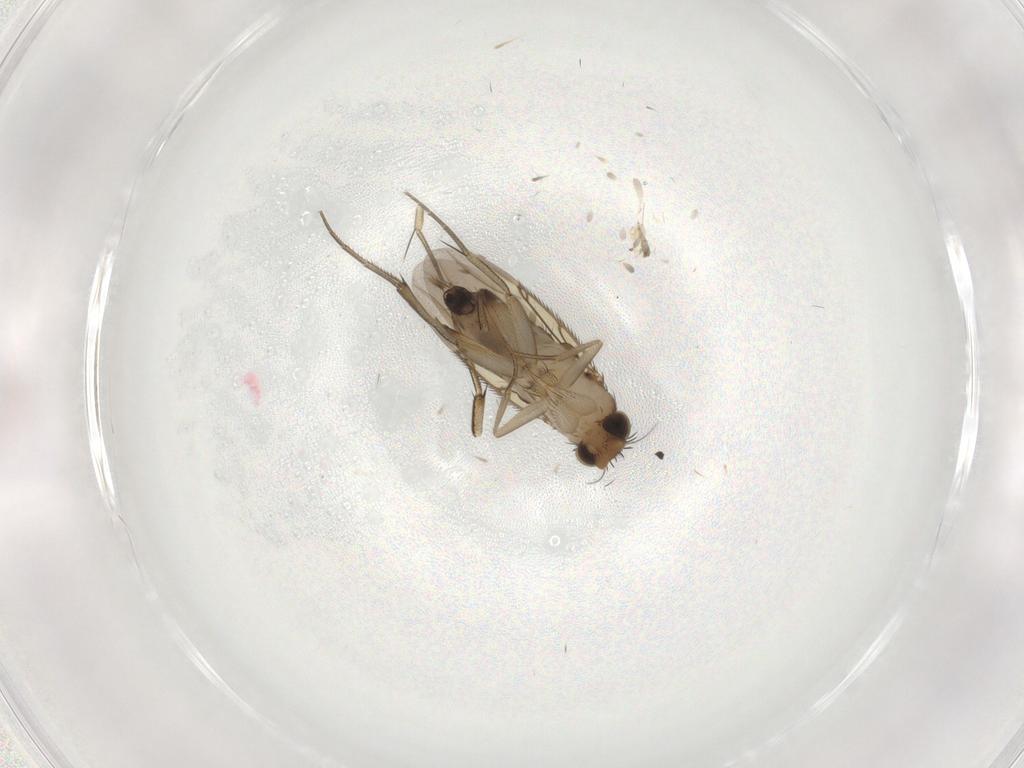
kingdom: Animalia
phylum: Arthropoda
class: Insecta
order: Diptera
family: Phoridae
